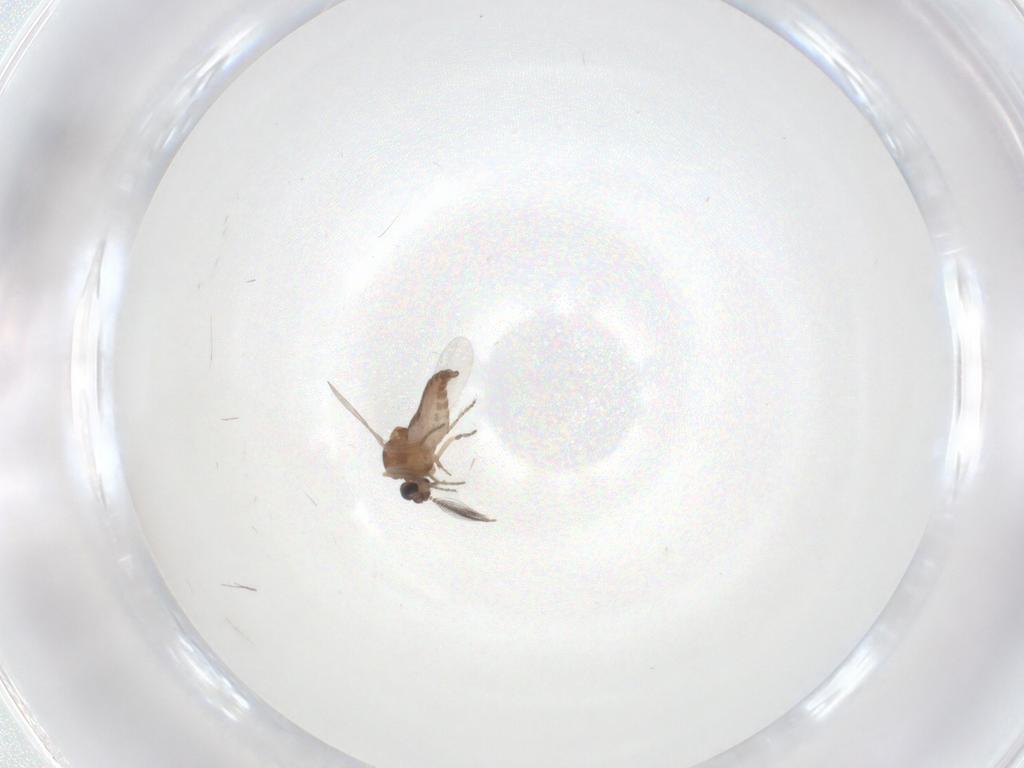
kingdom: Animalia
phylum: Arthropoda
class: Insecta
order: Diptera
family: Ceratopogonidae
